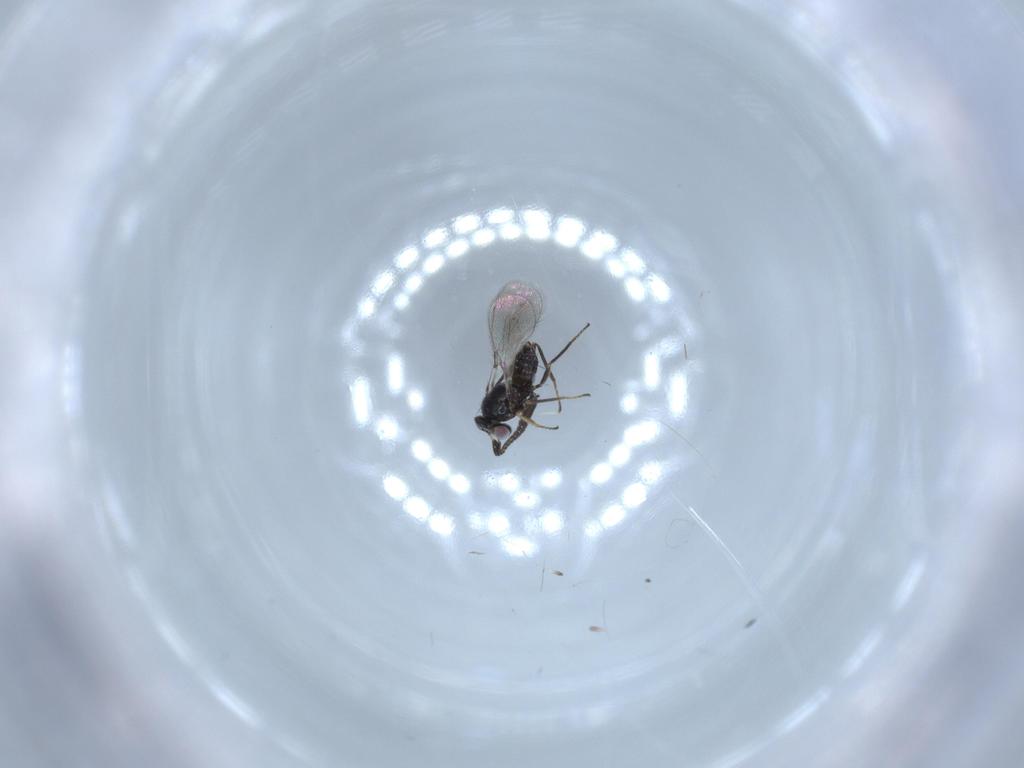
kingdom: Animalia
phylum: Arthropoda
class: Insecta
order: Hymenoptera
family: Mymaridae
